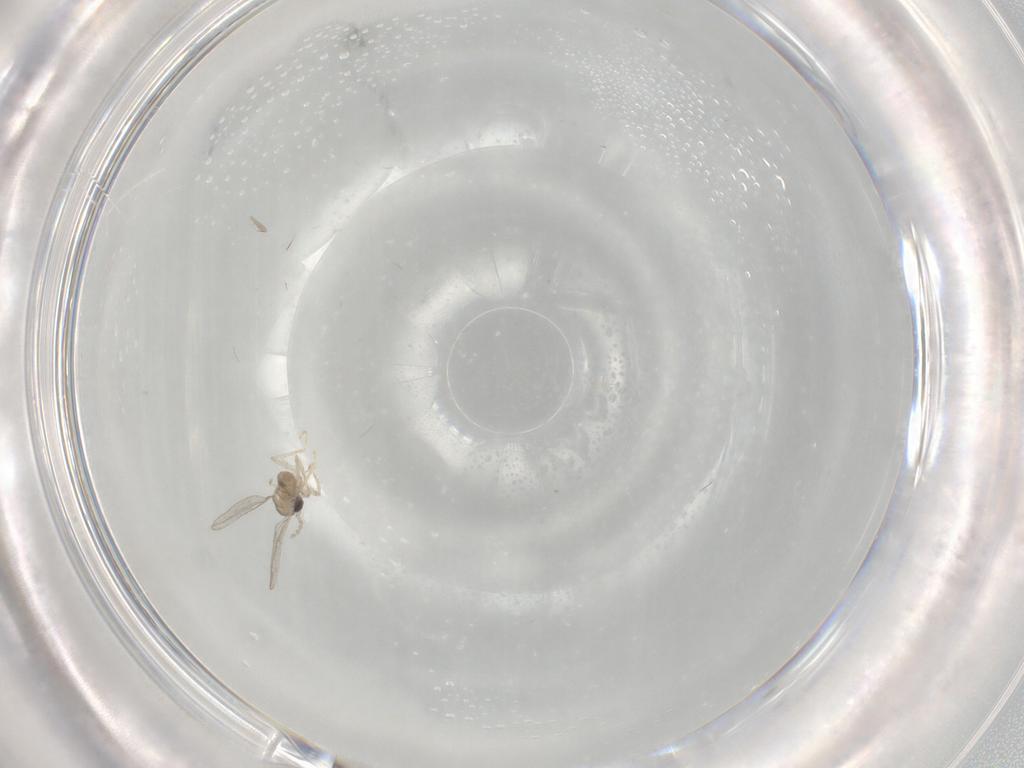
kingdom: Animalia
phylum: Arthropoda
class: Insecta
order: Diptera
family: Cecidomyiidae
